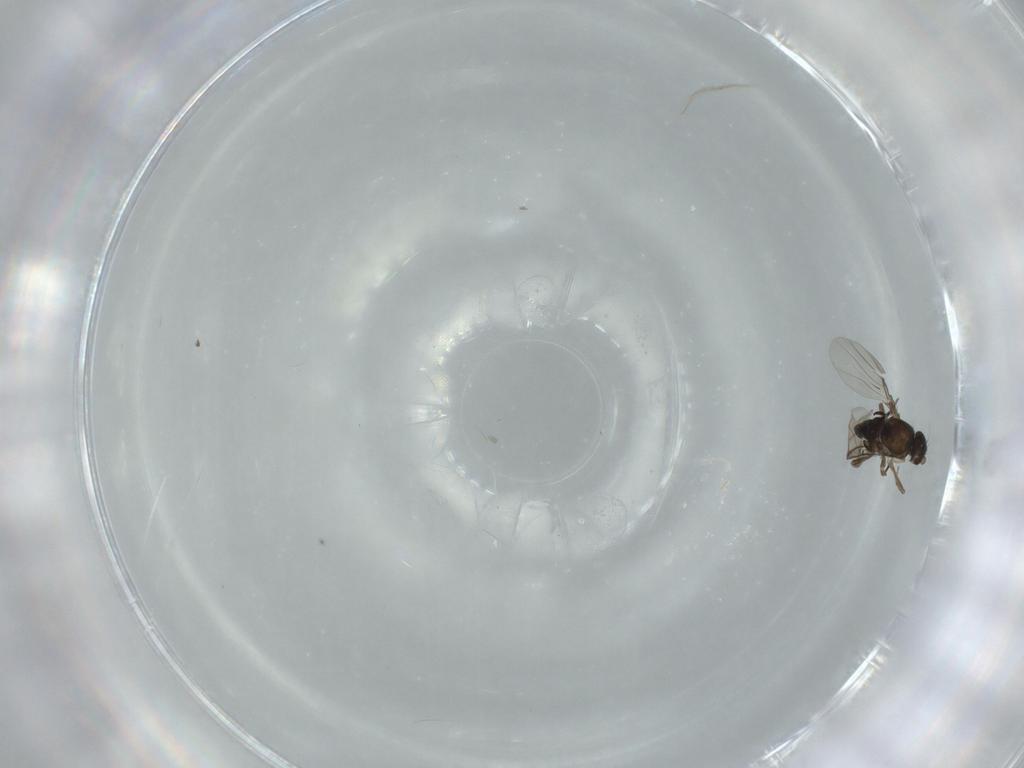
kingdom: Animalia
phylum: Arthropoda
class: Insecta
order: Diptera
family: Cecidomyiidae
